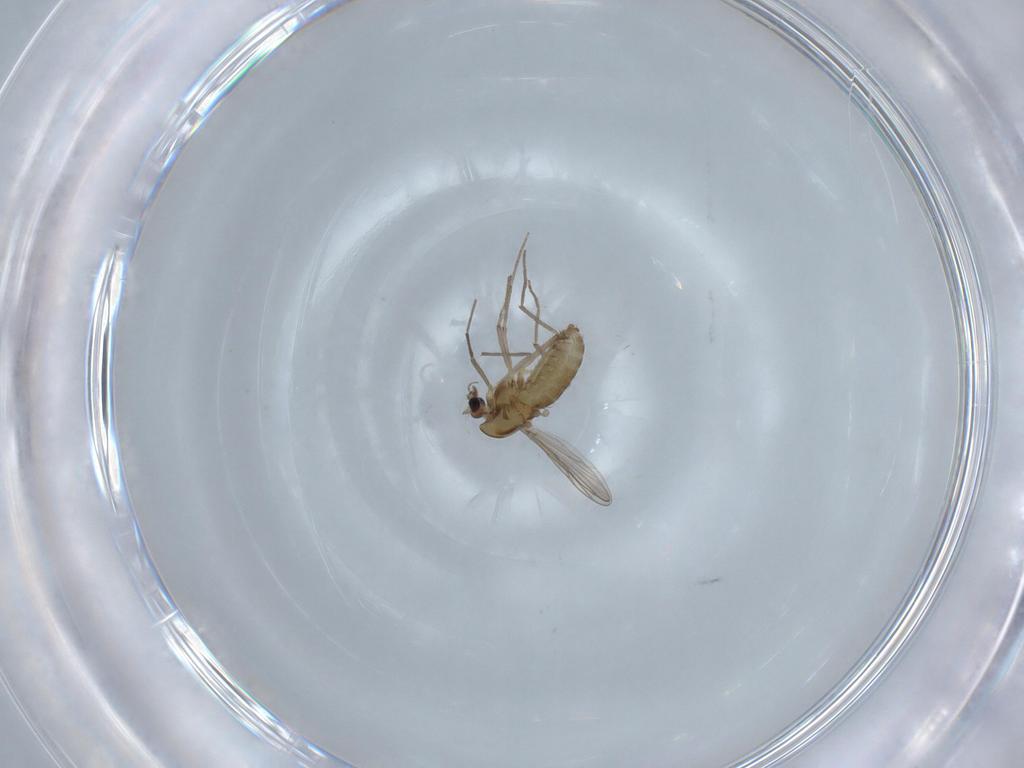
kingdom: Animalia
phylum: Arthropoda
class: Insecta
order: Diptera
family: Chironomidae
